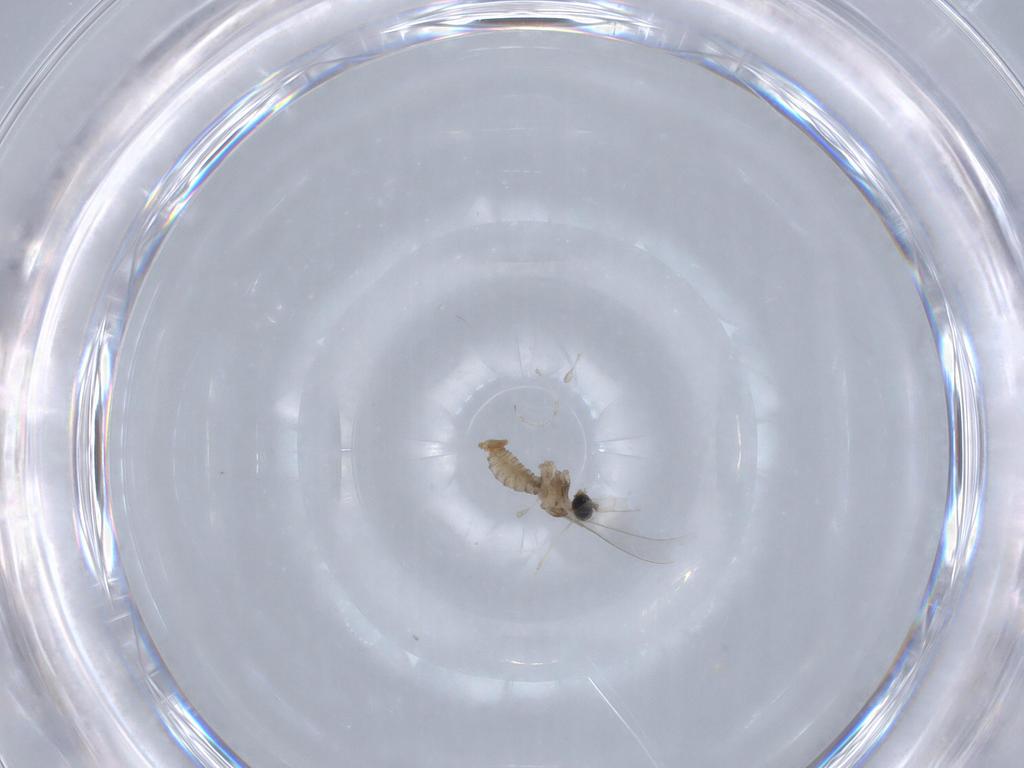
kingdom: Animalia
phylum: Arthropoda
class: Insecta
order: Diptera
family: Cecidomyiidae
